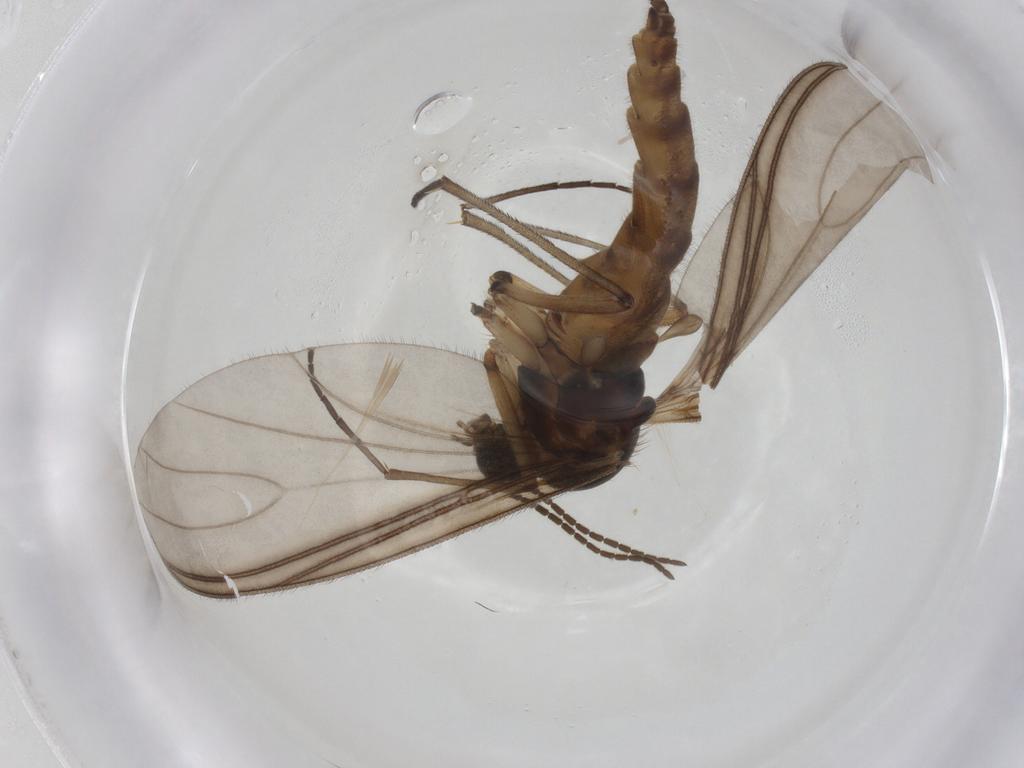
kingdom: Animalia
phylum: Arthropoda
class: Insecta
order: Diptera
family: Sciaridae
